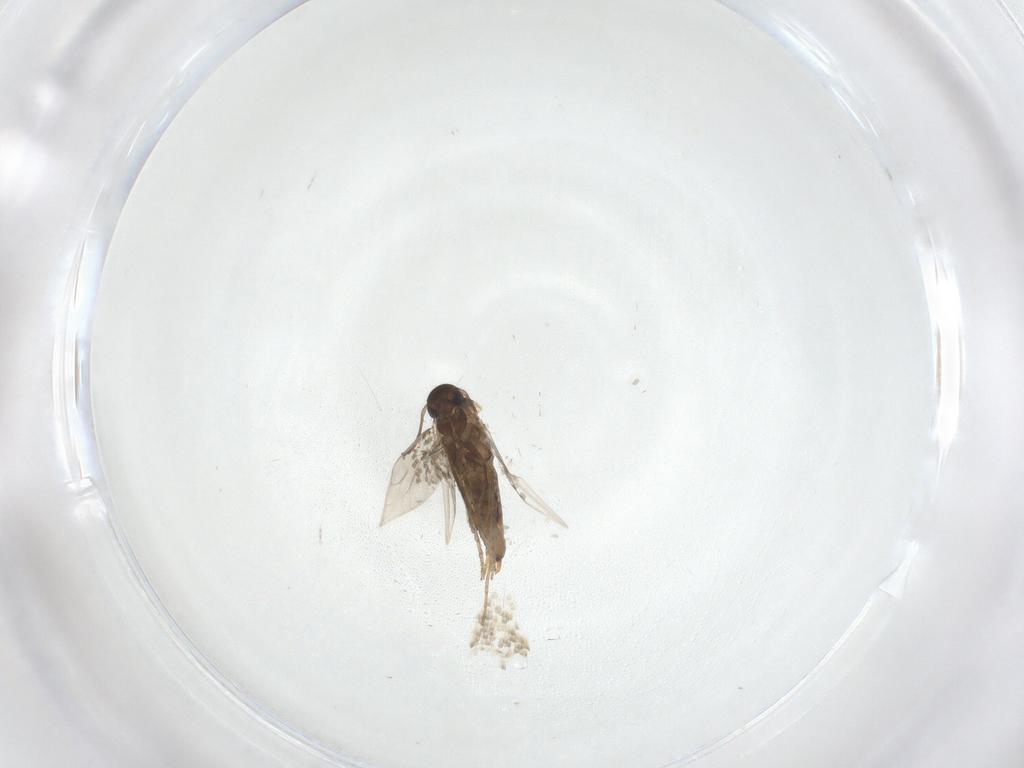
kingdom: Animalia
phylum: Arthropoda
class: Insecta
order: Lepidoptera
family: Heliozelidae
